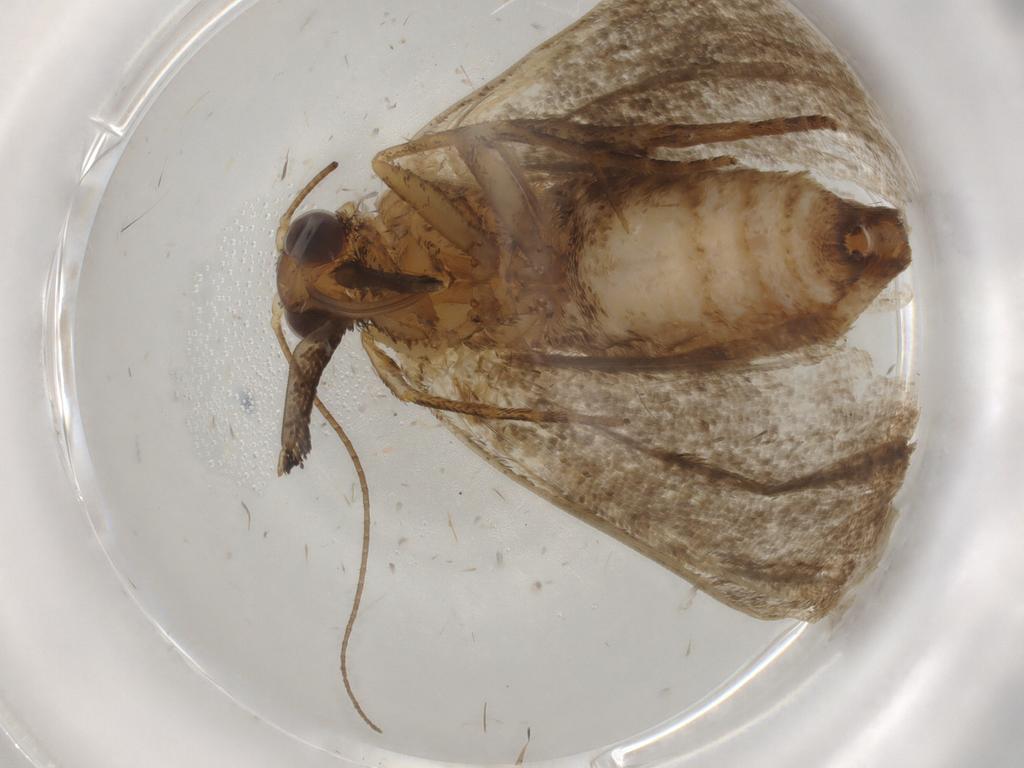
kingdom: Animalia
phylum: Arthropoda
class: Insecta
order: Lepidoptera
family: Erebidae
